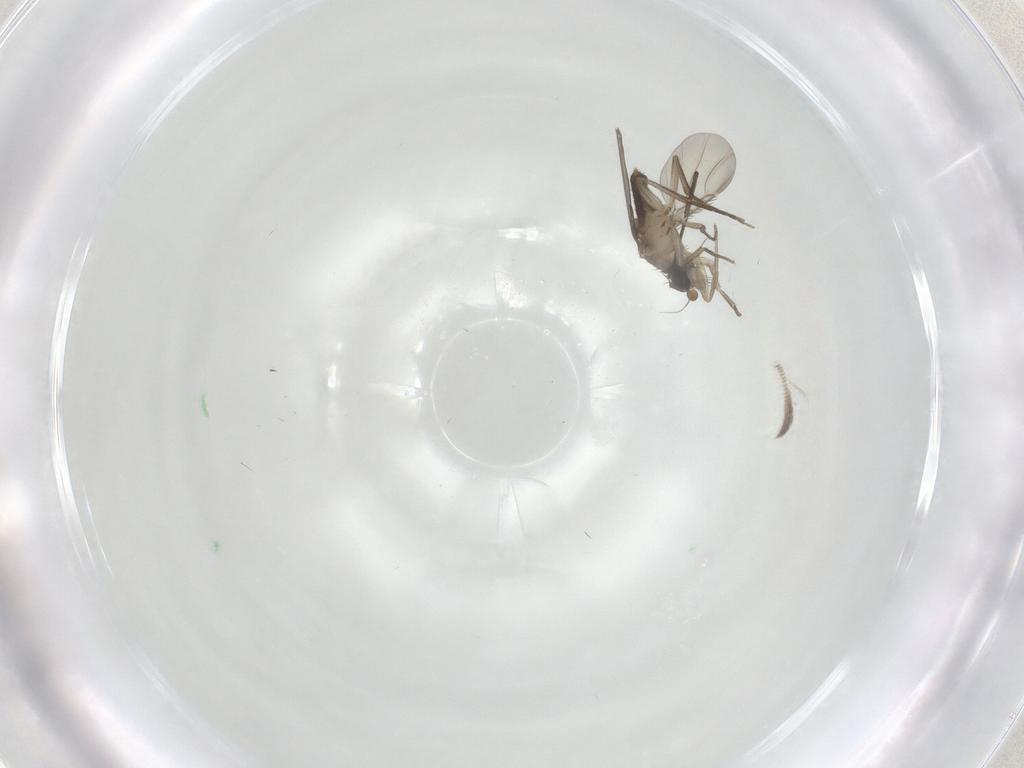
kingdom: Animalia
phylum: Arthropoda
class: Insecta
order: Diptera
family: Phoridae
